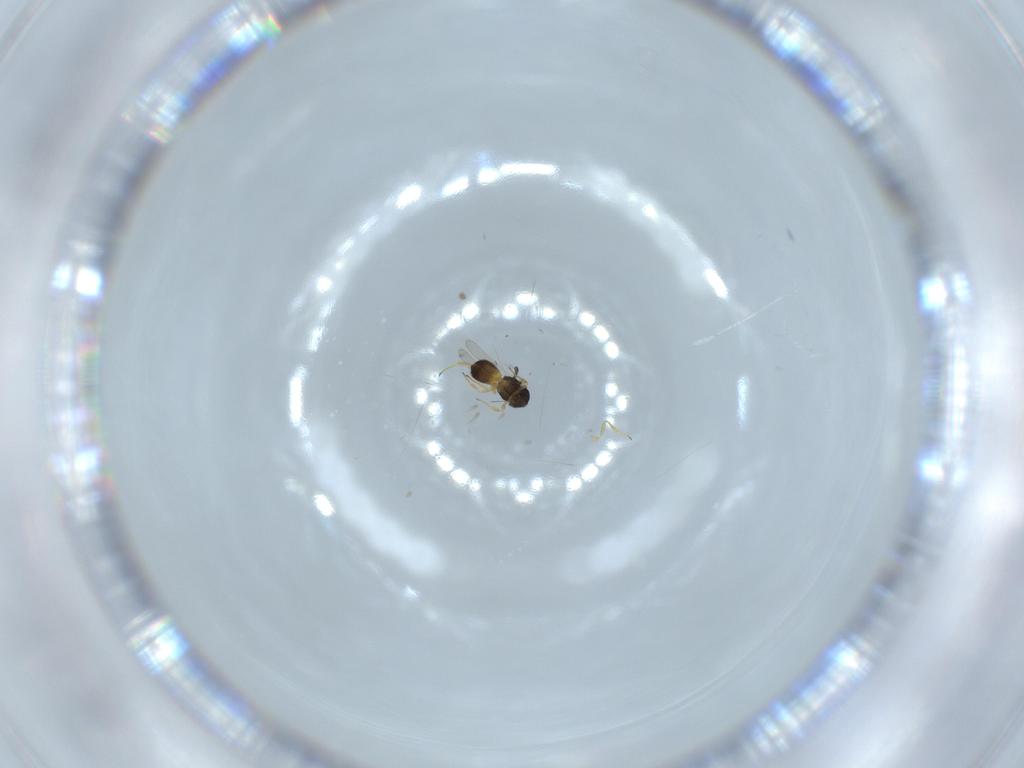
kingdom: Animalia
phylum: Arthropoda
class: Insecta
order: Hymenoptera
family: Scelionidae
